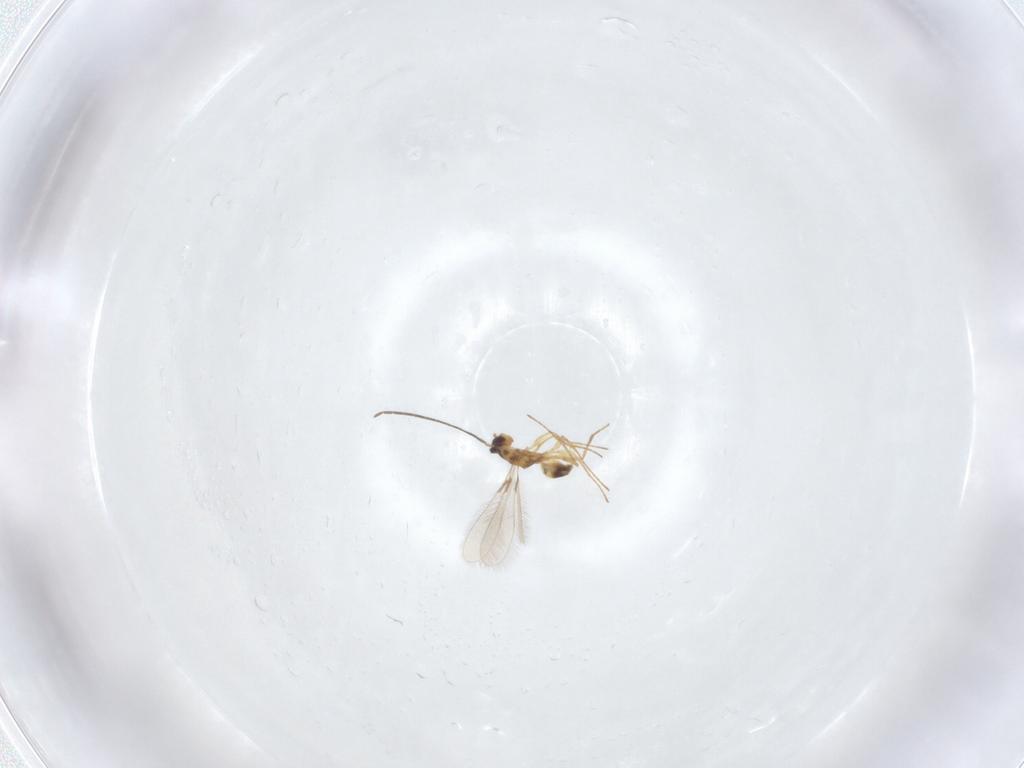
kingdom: Animalia
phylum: Arthropoda
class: Insecta
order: Hymenoptera
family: Mymaridae
